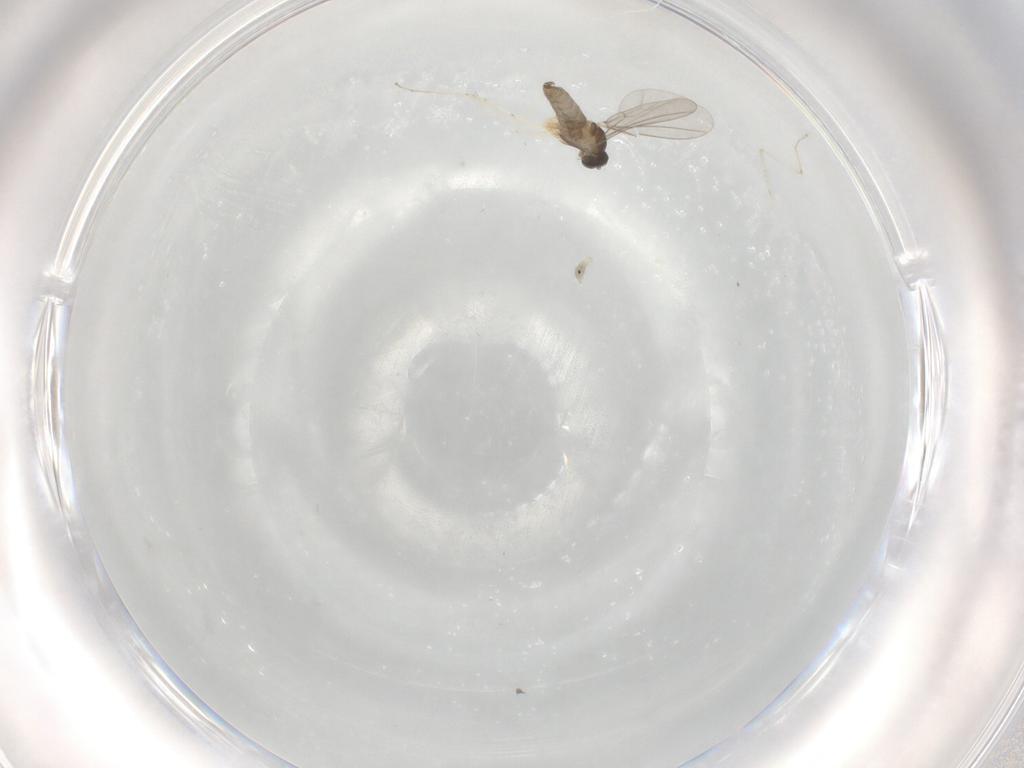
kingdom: Animalia
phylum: Arthropoda
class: Insecta
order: Diptera
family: Cecidomyiidae
